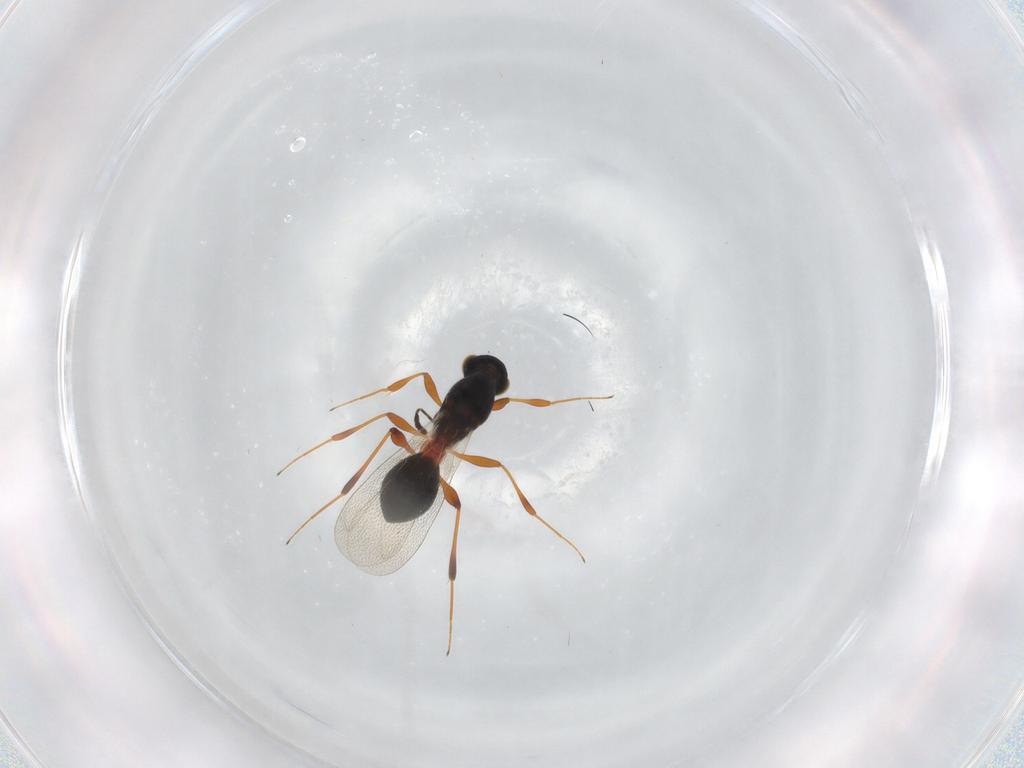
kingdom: Animalia
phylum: Arthropoda
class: Insecta
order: Hymenoptera
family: Platygastridae
